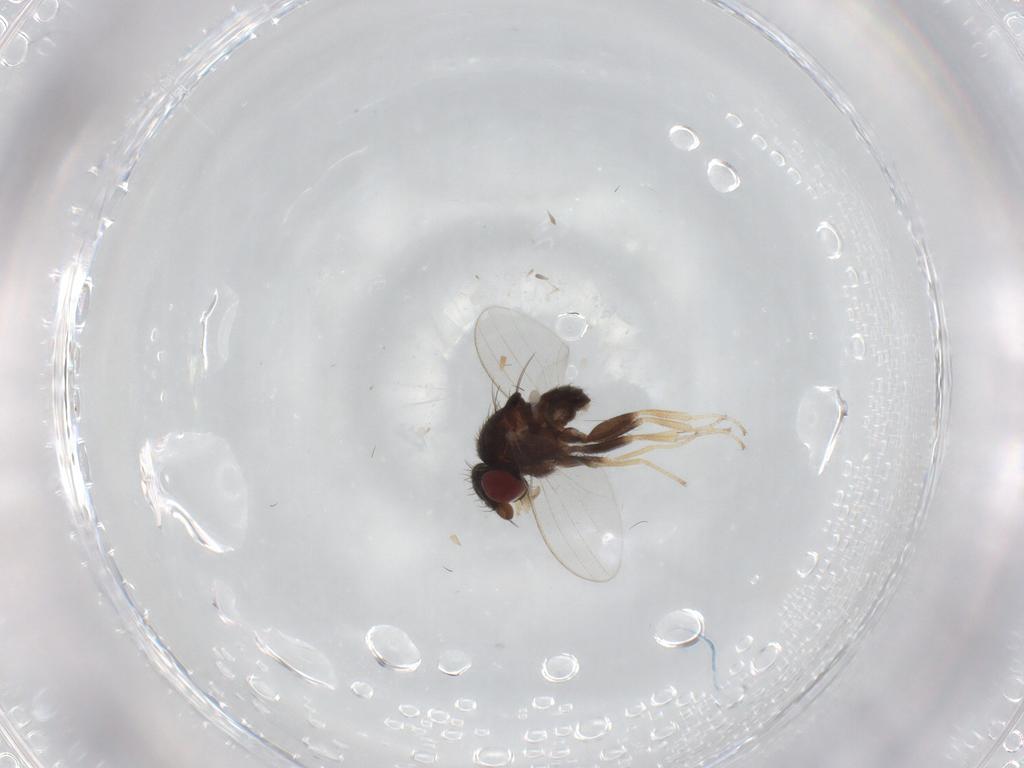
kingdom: Animalia
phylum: Arthropoda
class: Insecta
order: Diptera
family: Milichiidae
